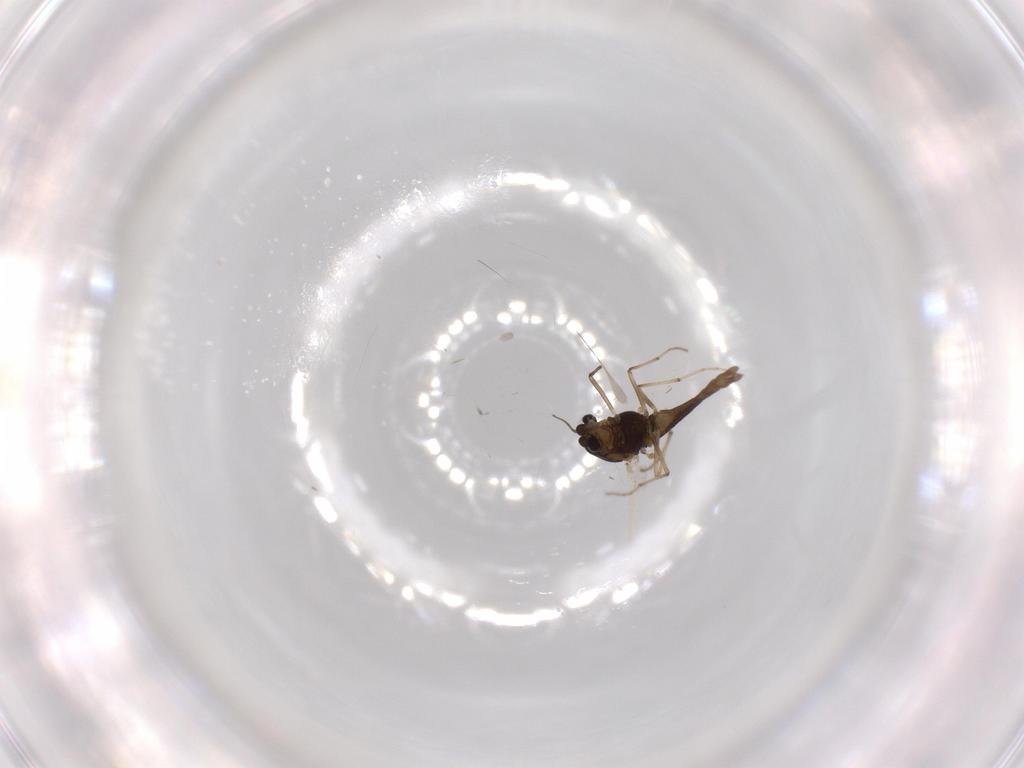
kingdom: Animalia
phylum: Arthropoda
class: Insecta
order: Diptera
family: Chironomidae
